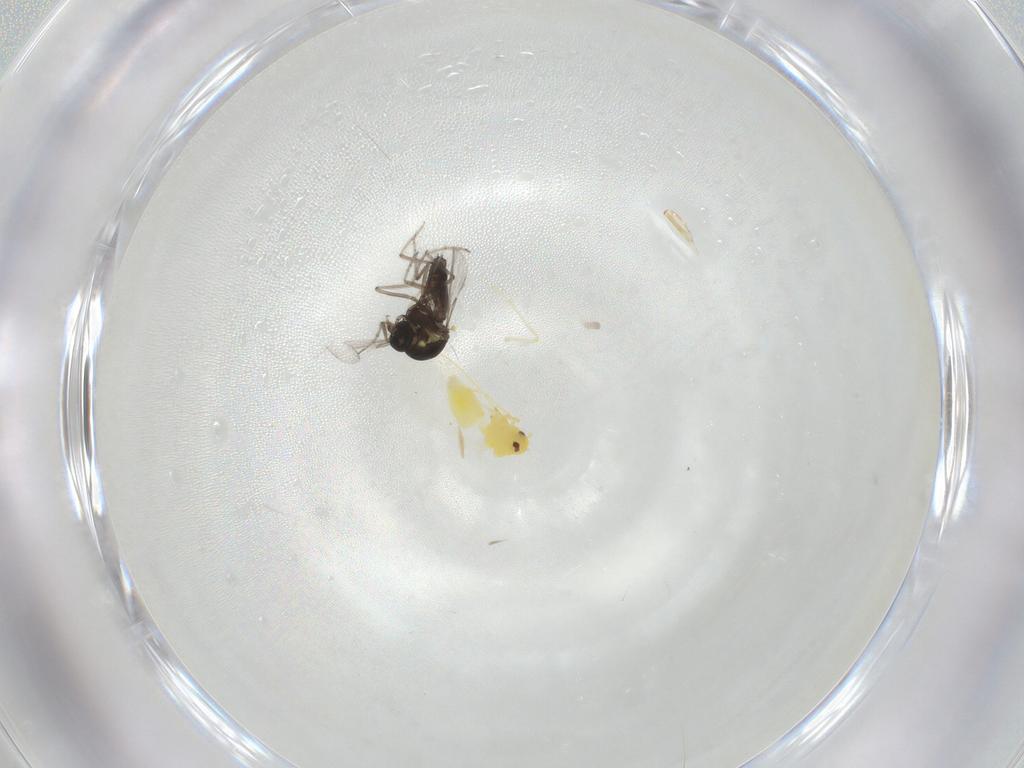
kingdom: Animalia
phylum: Arthropoda
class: Insecta
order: Diptera
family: Ceratopogonidae
